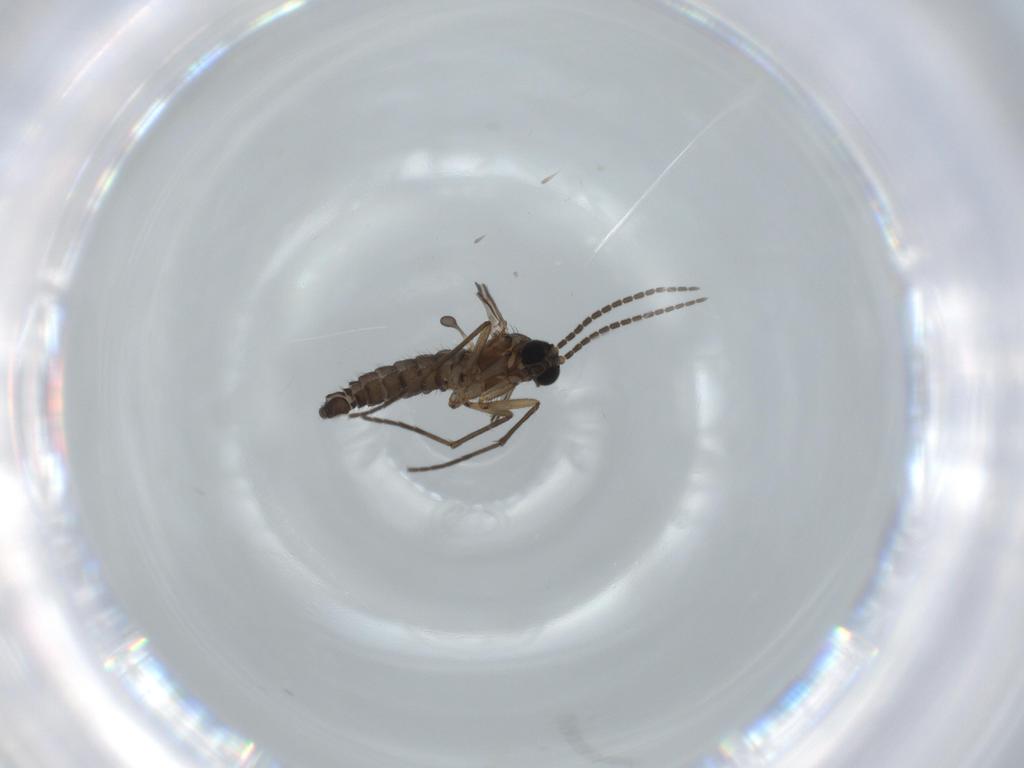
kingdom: Animalia
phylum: Arthropoda
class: Insecta
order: Diptera
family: Sciaridae
